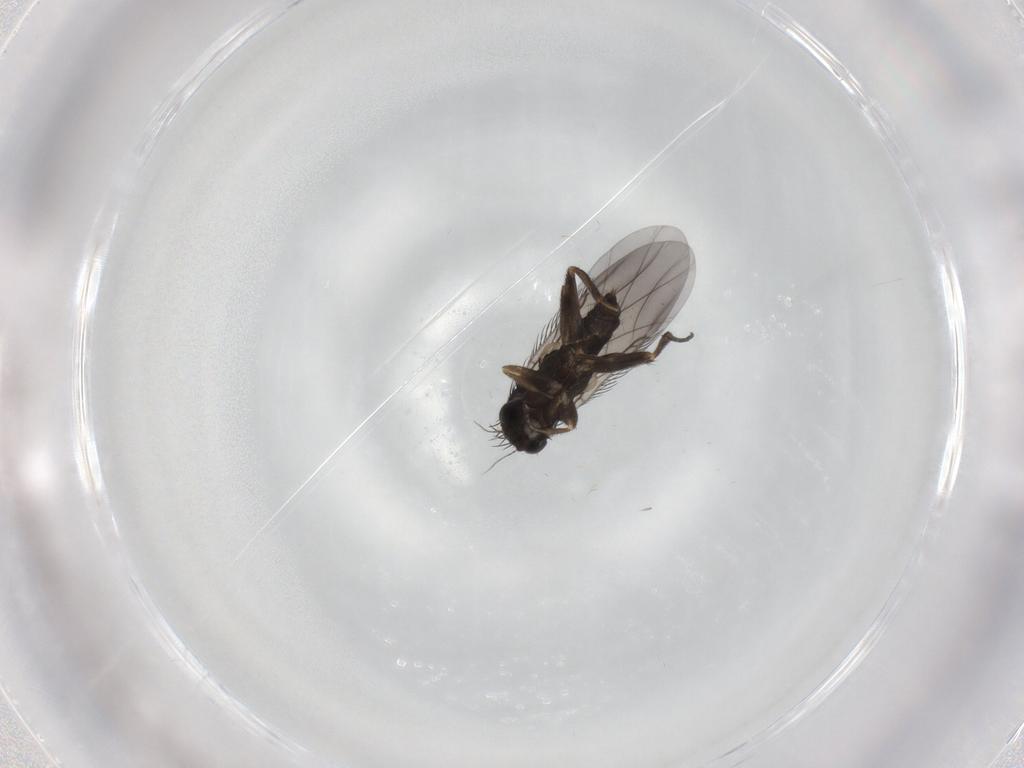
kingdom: Animalia
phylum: Arthropoda
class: Insecta
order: Diptera
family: Phoridae
